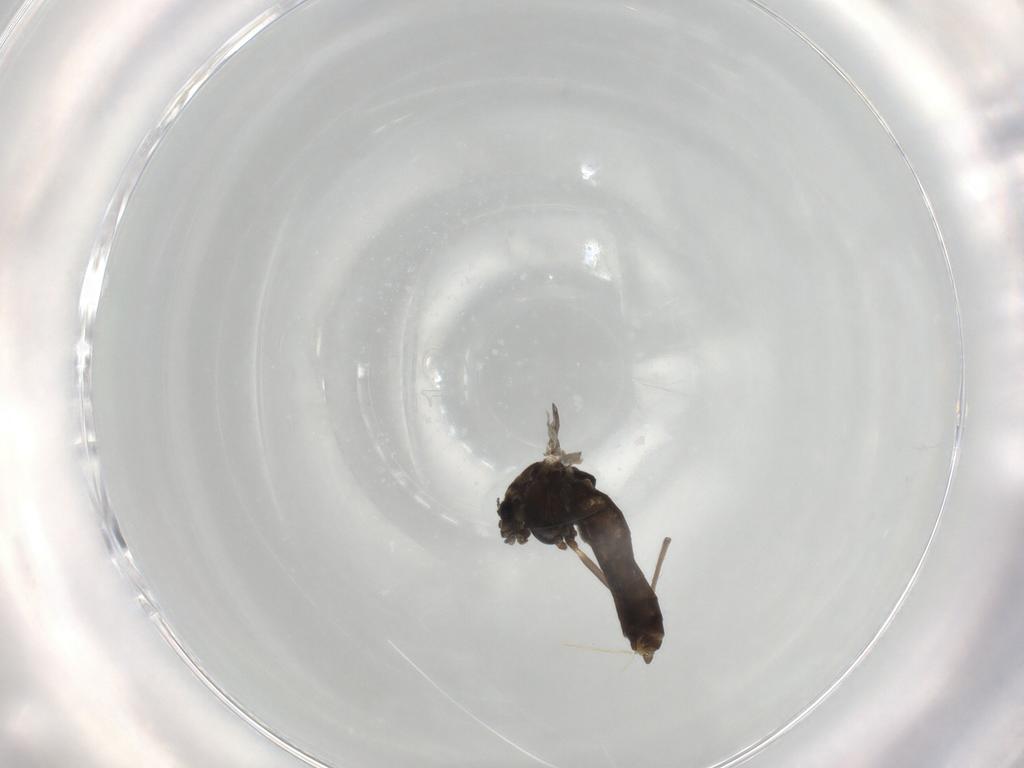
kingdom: Animalia
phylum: Arthropoda
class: Insecta
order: Diptera
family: Chironomidae
